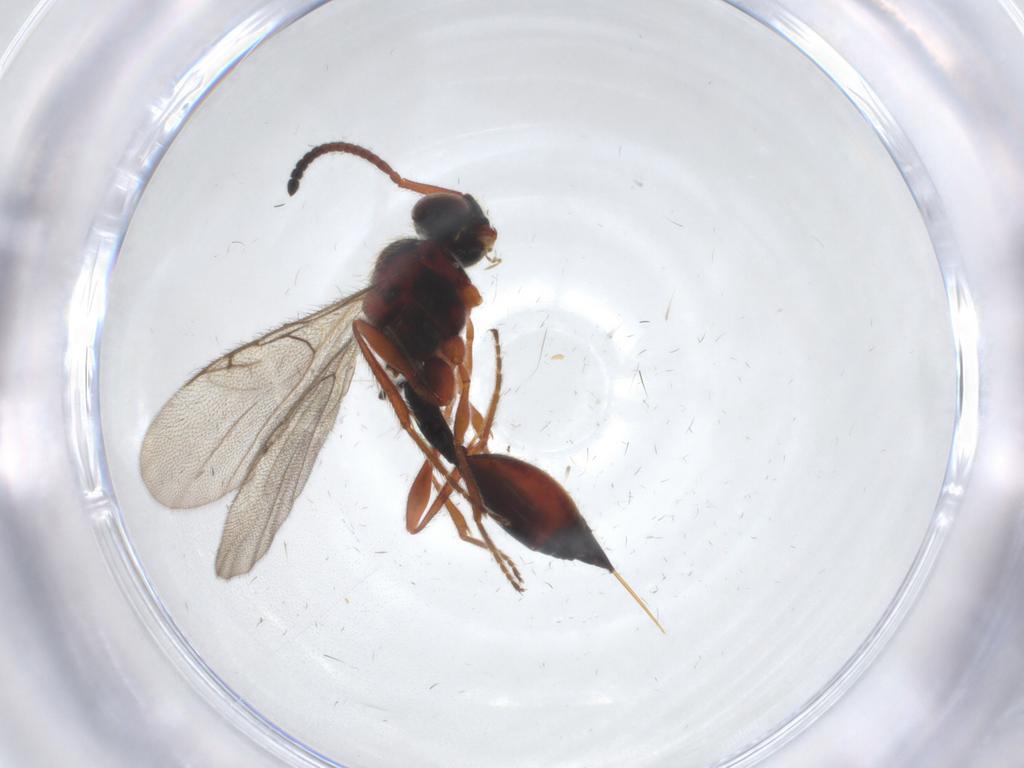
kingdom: Animalia
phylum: Arthropoda
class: Insecta
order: Hymenoptera
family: Diapriidae
